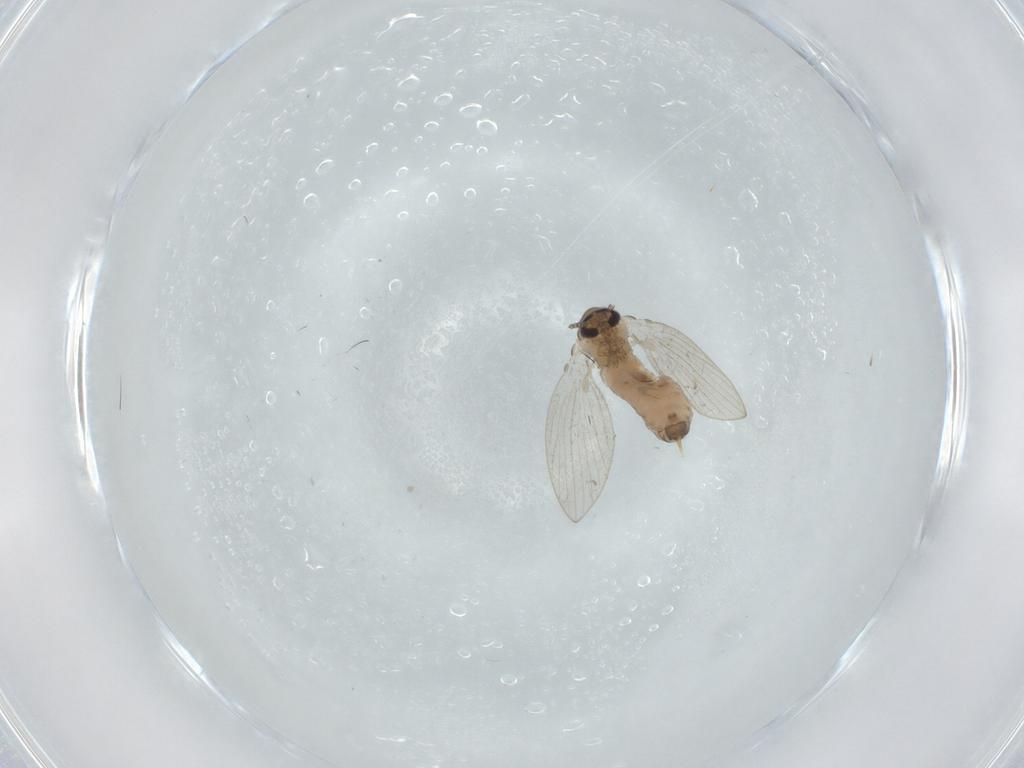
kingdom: Animalia
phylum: Arthropoda
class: Insecta
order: Diptera
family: Psychodidae
